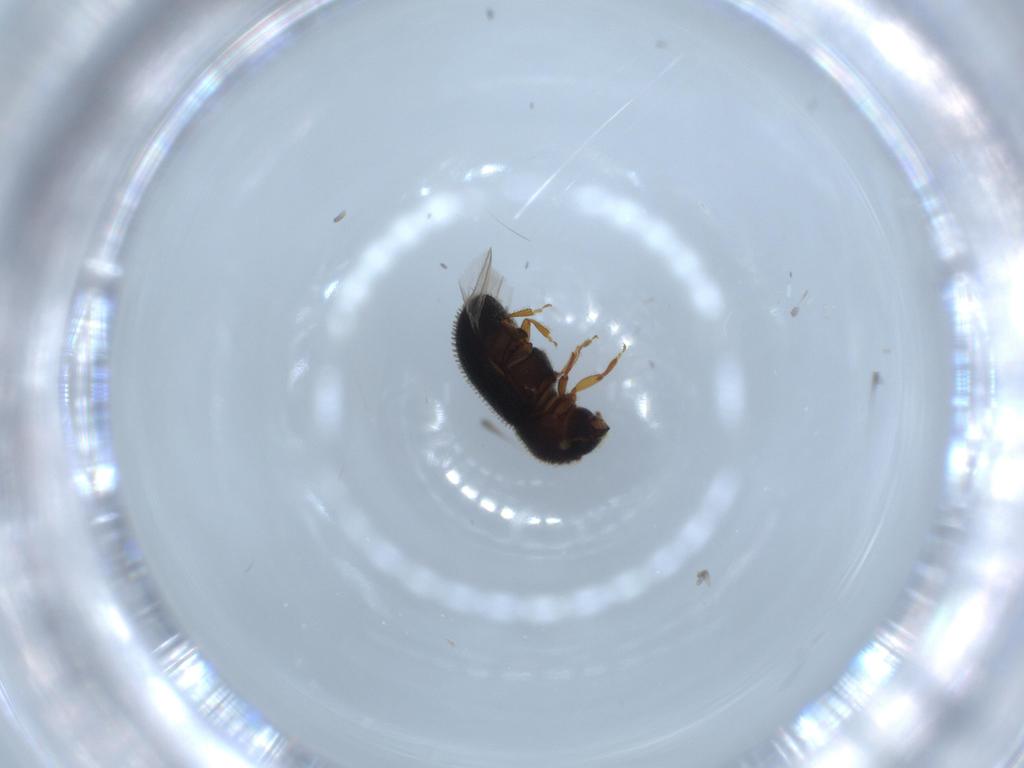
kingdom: Animalia
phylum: Arthropoda
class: Insecta
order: Coleoptera
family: Curculionidae
